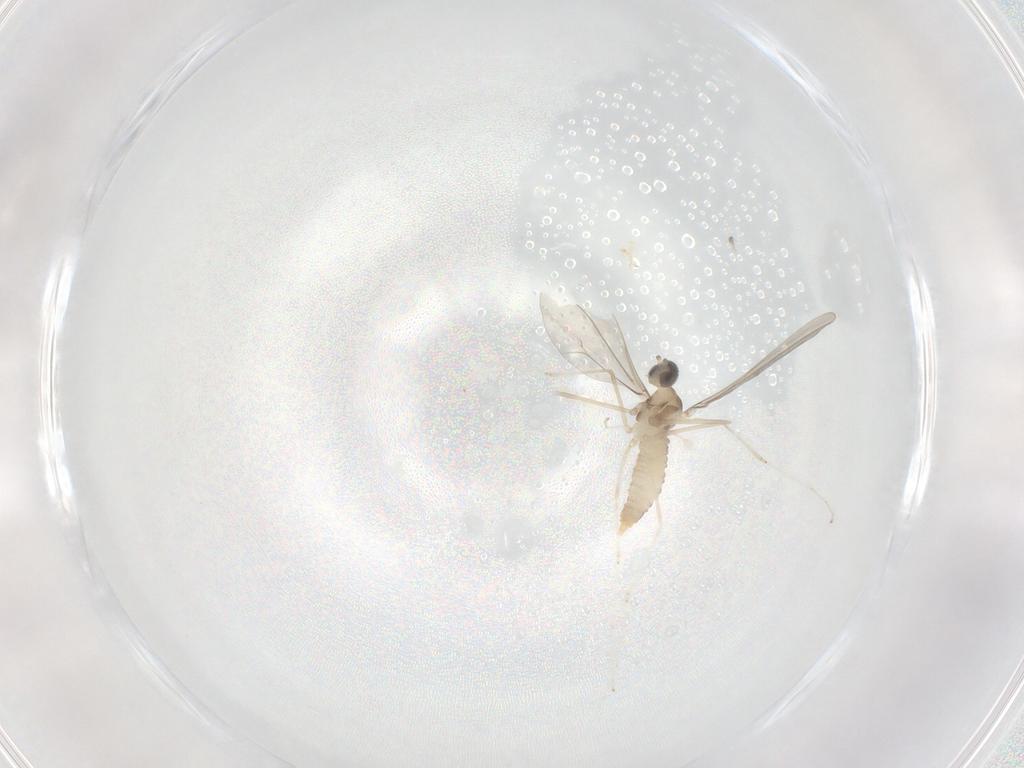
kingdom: Animalia
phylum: Arthropoda
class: Insecta
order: Diptera
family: Cecidomyiidae
